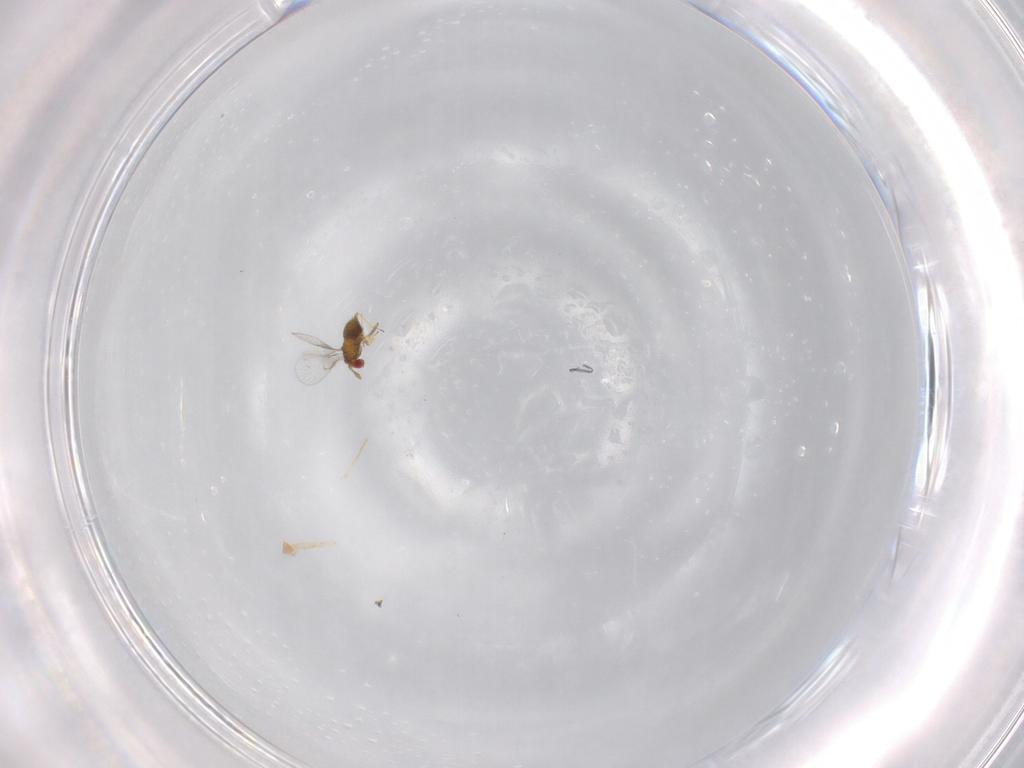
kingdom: Animalia
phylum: Arthropoda
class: Insecta
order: Hymenoptera
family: Trichogrammatidae
